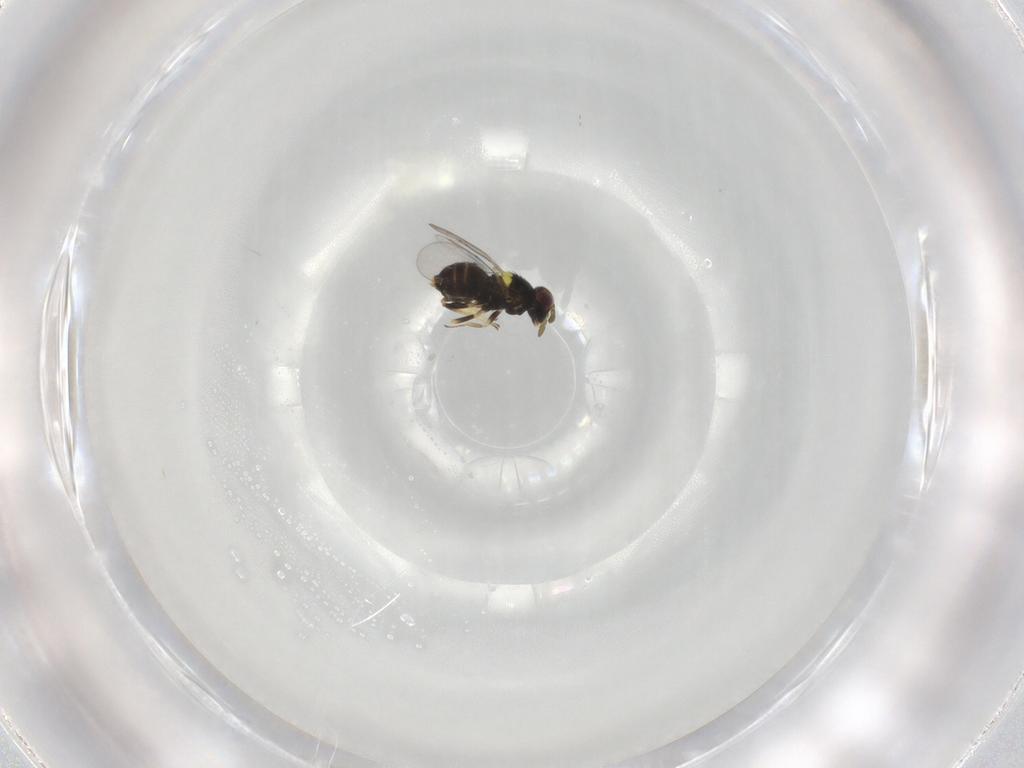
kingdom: Animalia
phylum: Arthropoda
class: Insecta
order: Hymenoptera
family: Aphelinidae
